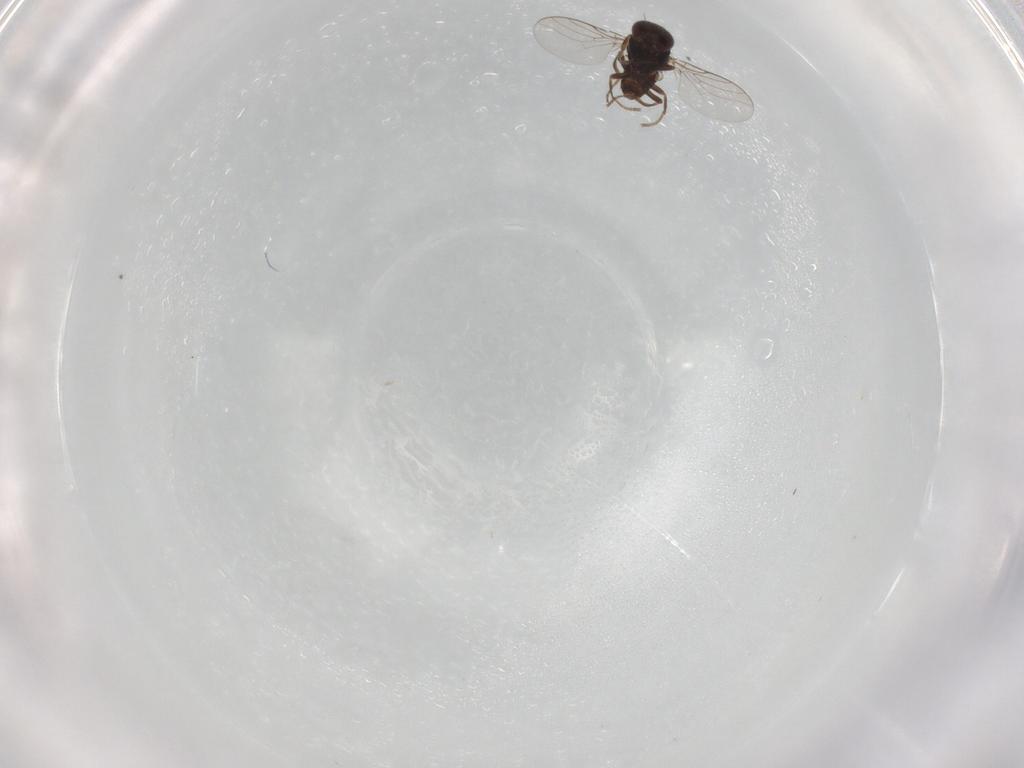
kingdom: Animalia
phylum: Arthropoda
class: Insecta
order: Diptera
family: Chloropidae
